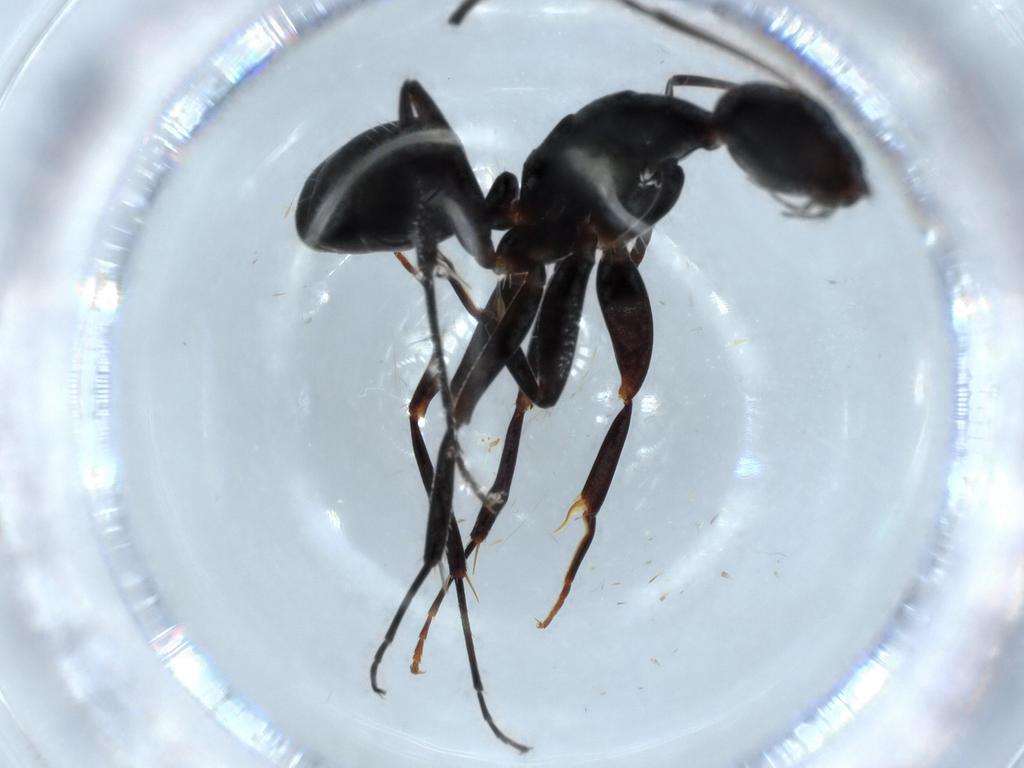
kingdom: Animalia
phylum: Arthropoda
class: Insecta
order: Hymenoptera
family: Formicidae
